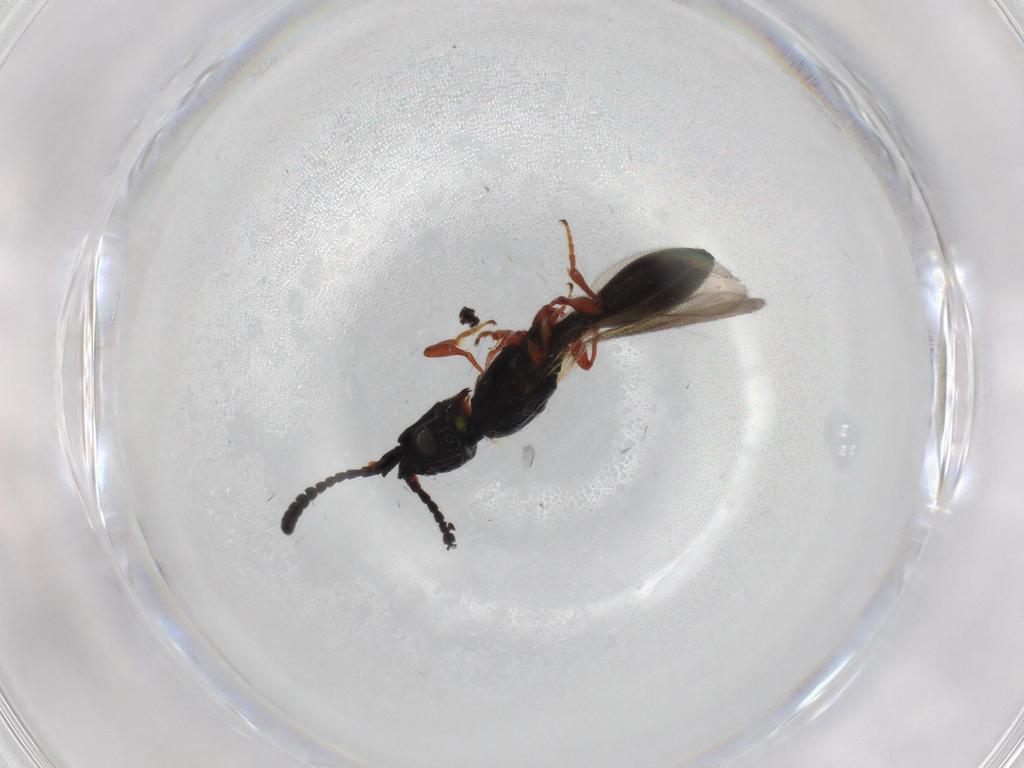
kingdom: Animalia
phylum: Arthropoda
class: Insecta
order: Hymenoptera
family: Diapriidae
